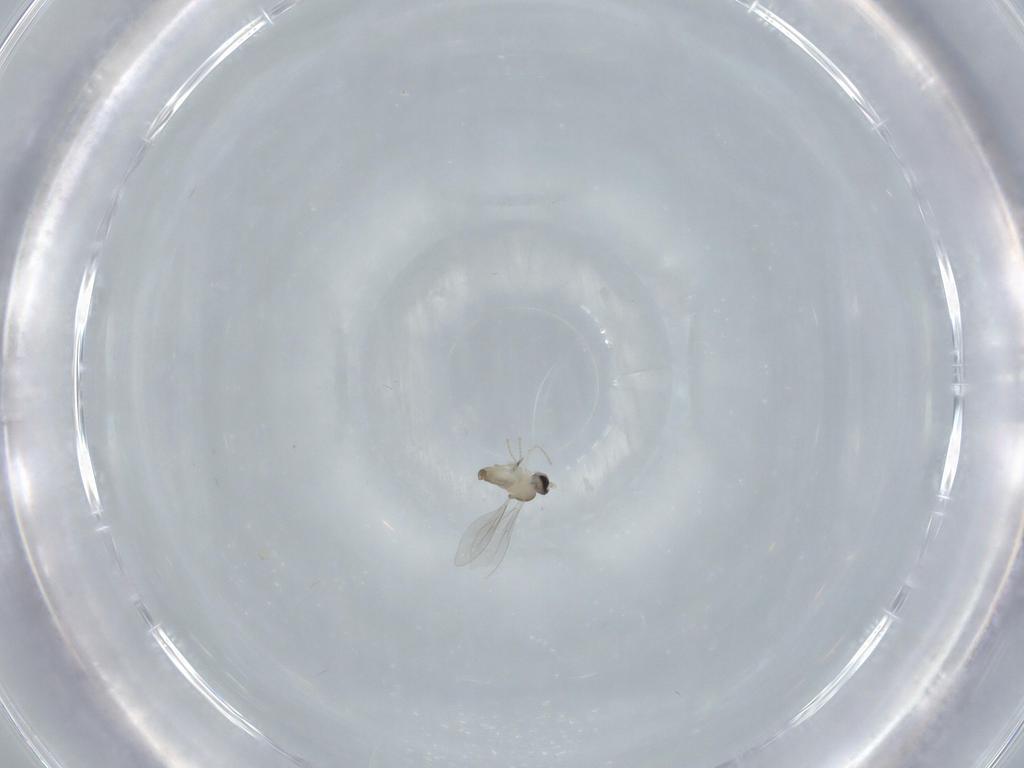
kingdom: Animalia
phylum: Arthropoda
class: Insecta
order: Diptera
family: Cecidomyiidae
